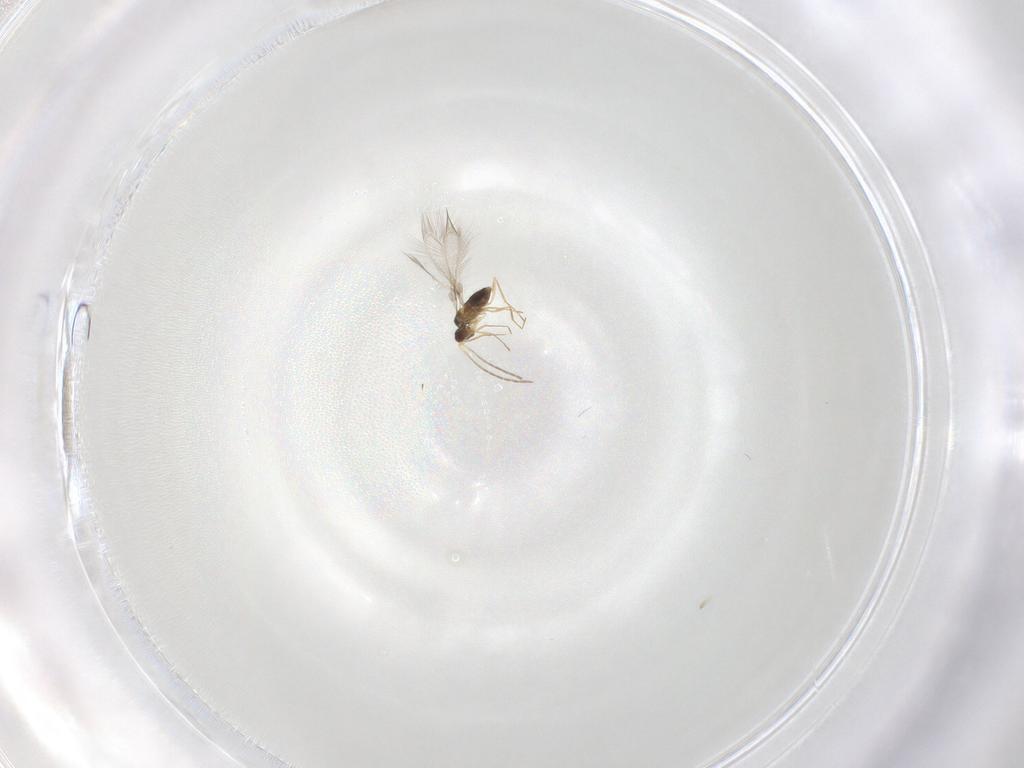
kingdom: Animalia
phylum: Arthropoda
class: Insecta
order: Hymenoptera
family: Mymaridae
